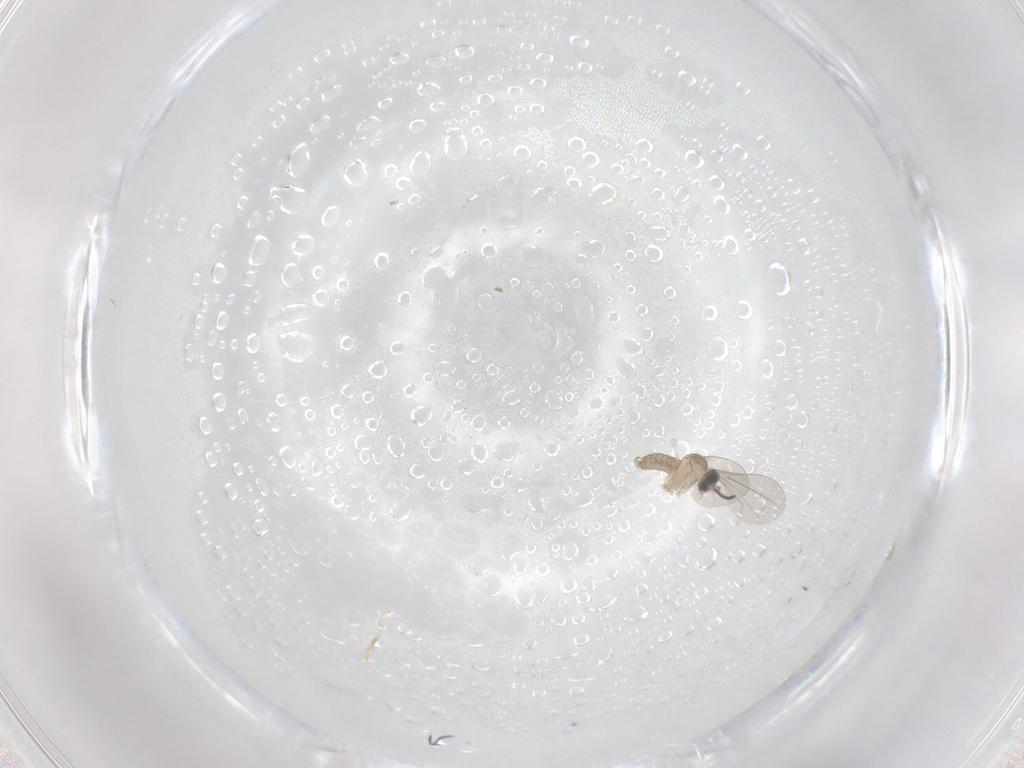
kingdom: Animalia
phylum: Arthropoda
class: Insecta
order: Diptera
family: Cecidomyiidae
